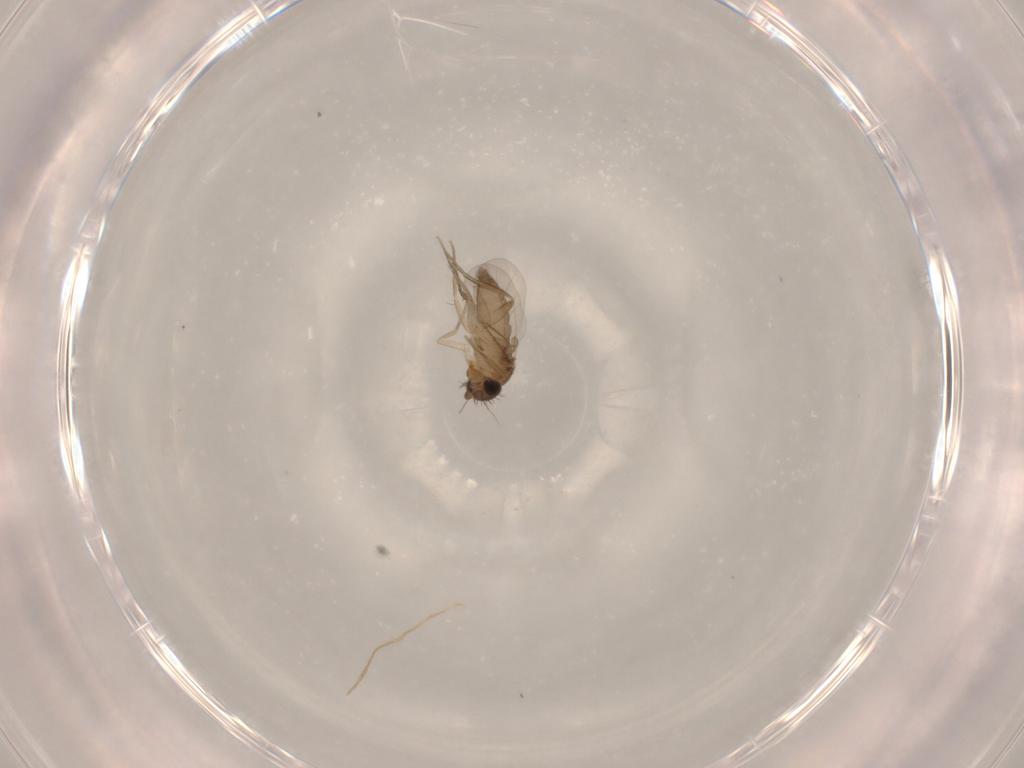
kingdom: Animalia
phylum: Arthropoda
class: Insecta
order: Diptera
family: Phoridae
